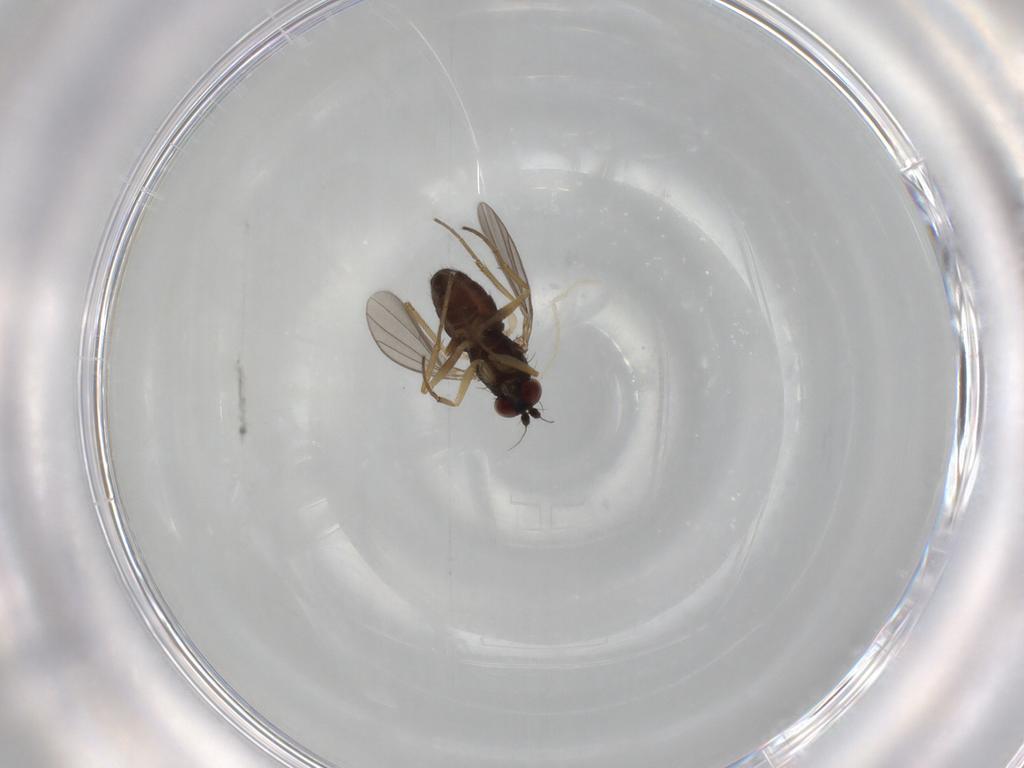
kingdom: Animalia
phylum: Arthropoda
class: Insecta
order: Diptera
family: Dolichopodidae
